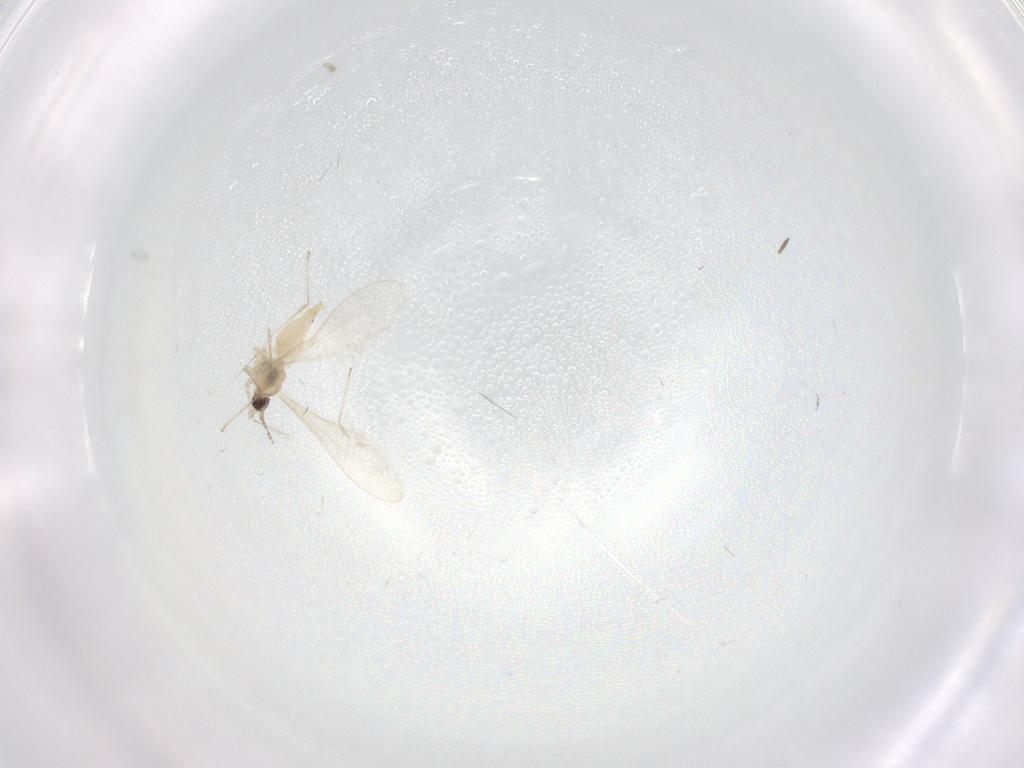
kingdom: Animalia
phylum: Arthropoda
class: Insecta
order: Diptera
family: Cecidomyiidae
